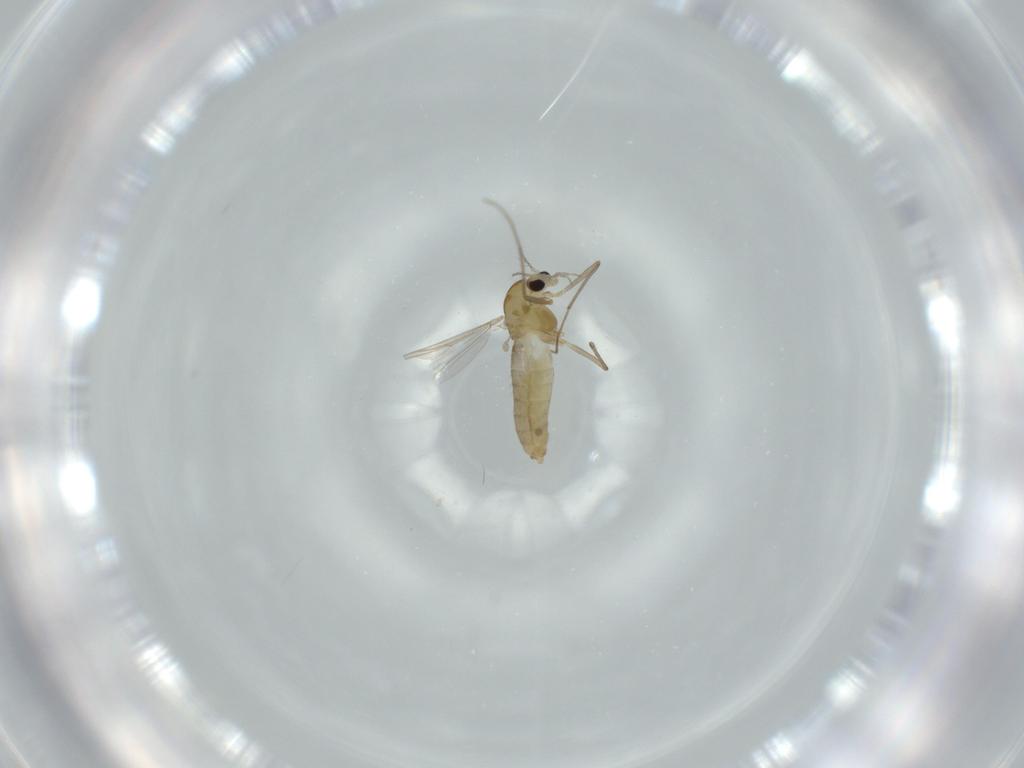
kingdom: Animalia
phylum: Arthropoda
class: Insecta
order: Diptera
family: Chironomidae
